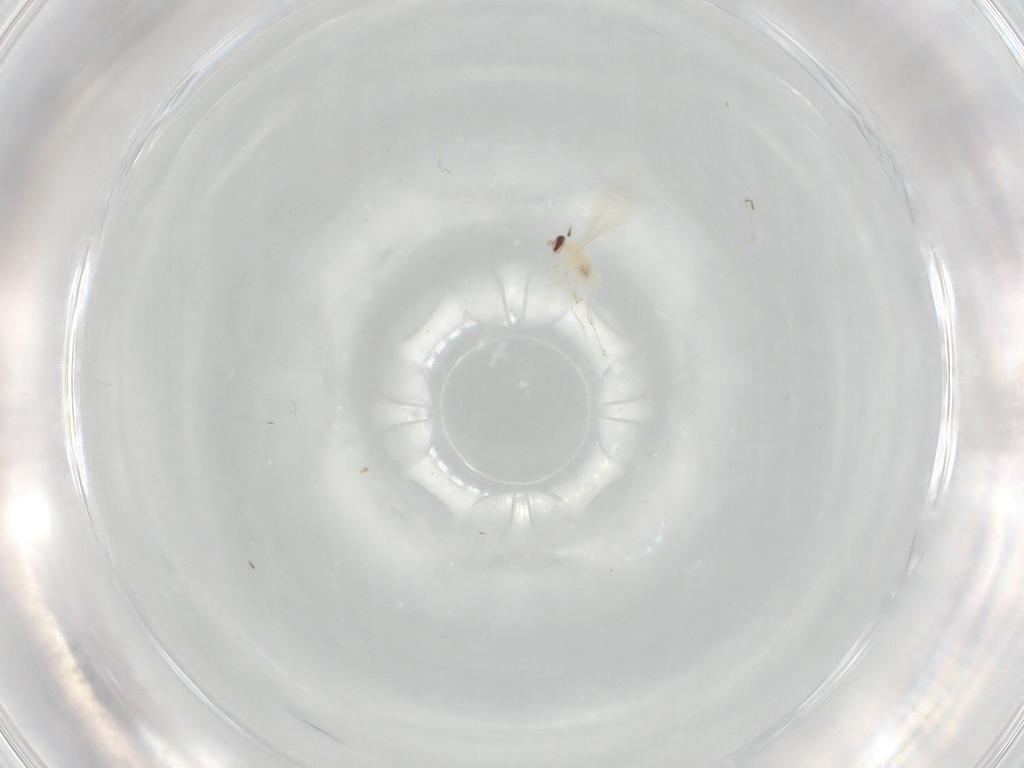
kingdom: Animalia
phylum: Arthropoda
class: Insecta
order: Diptera
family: Cecidomyiidae
